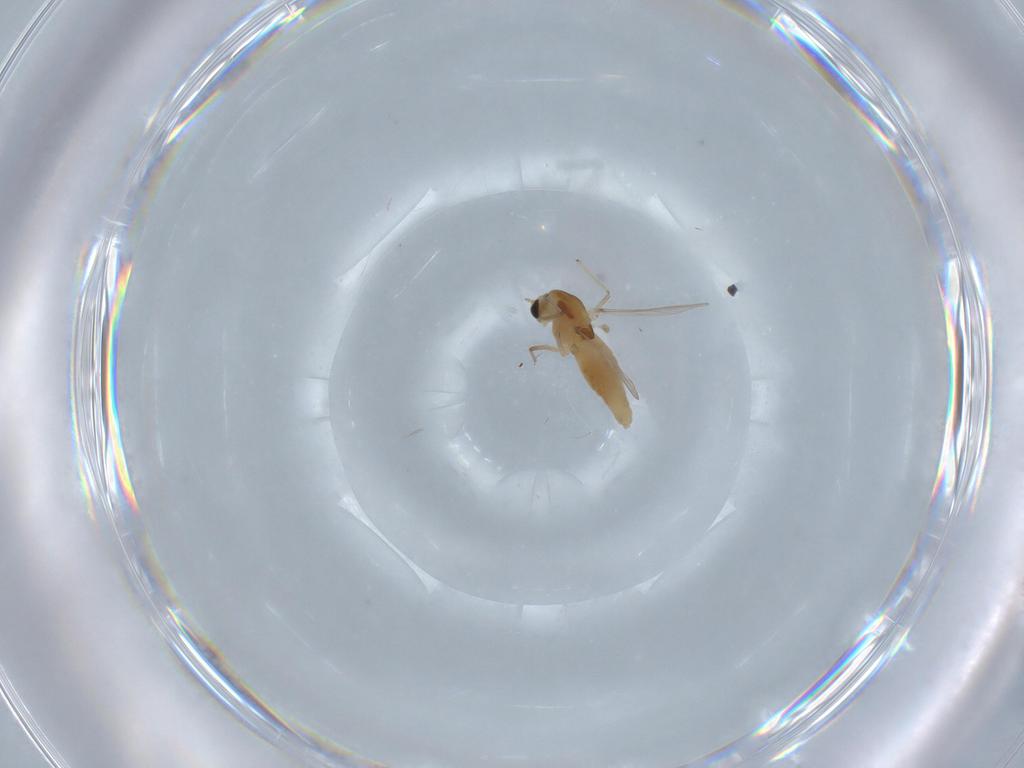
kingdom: Animalia
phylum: Arthropoda
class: Insecta
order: Diptera
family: Chironomidae
